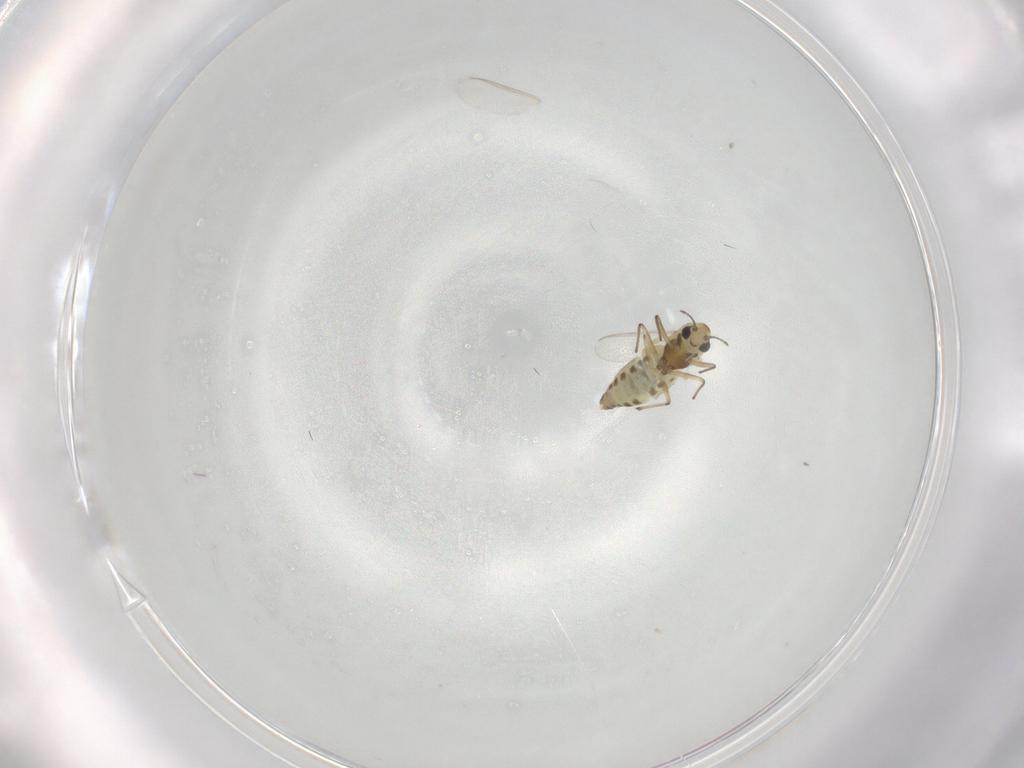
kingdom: Animalia
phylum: Arthropoda
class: Insecta
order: Diptera
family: Chironomidae
